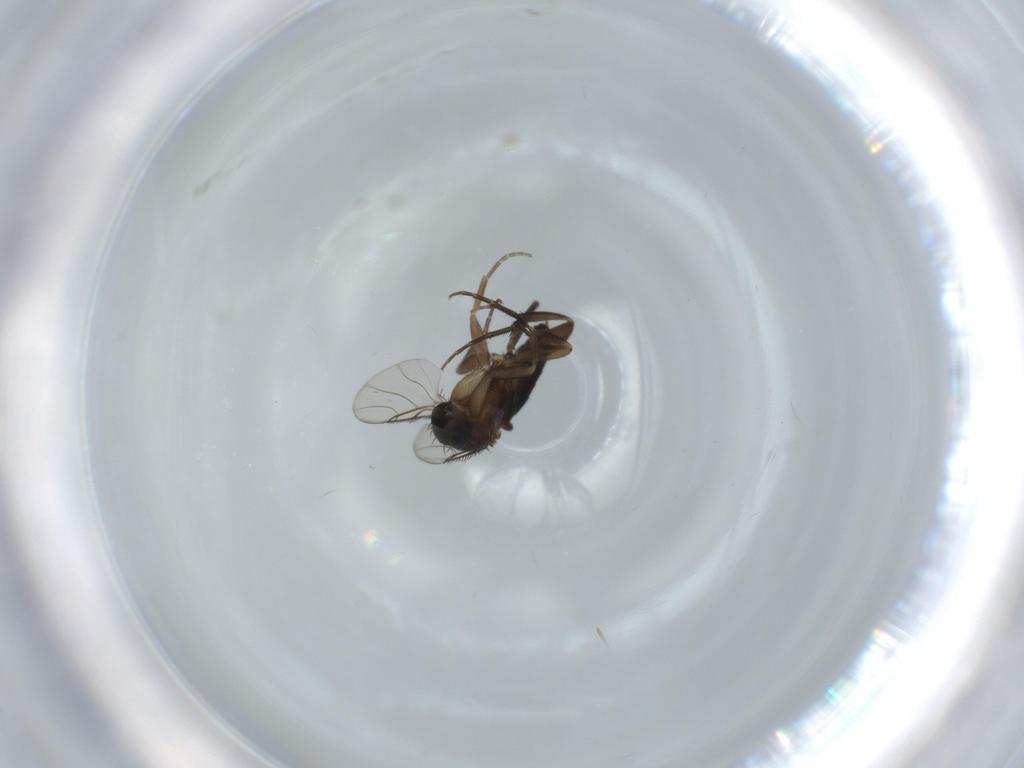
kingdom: Animalia
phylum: Arthropoda
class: Insecta
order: Diptera
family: Phoridae
